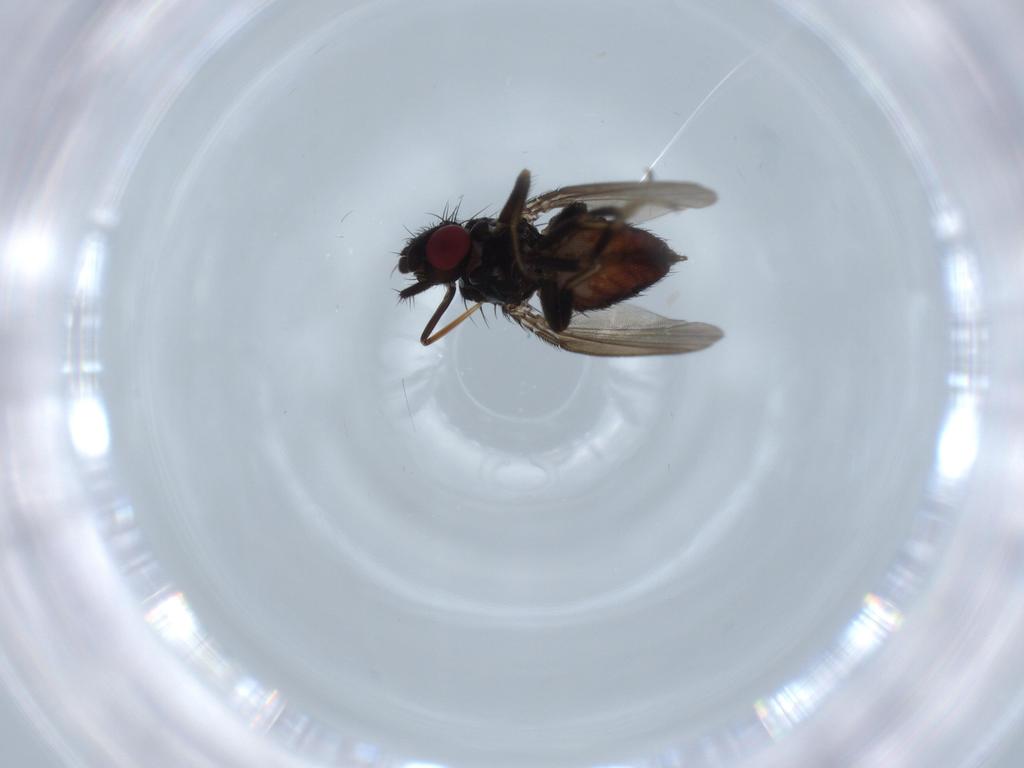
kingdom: Animalia
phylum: Arthropoda
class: Insecta
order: Diptera
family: Milichiidae
